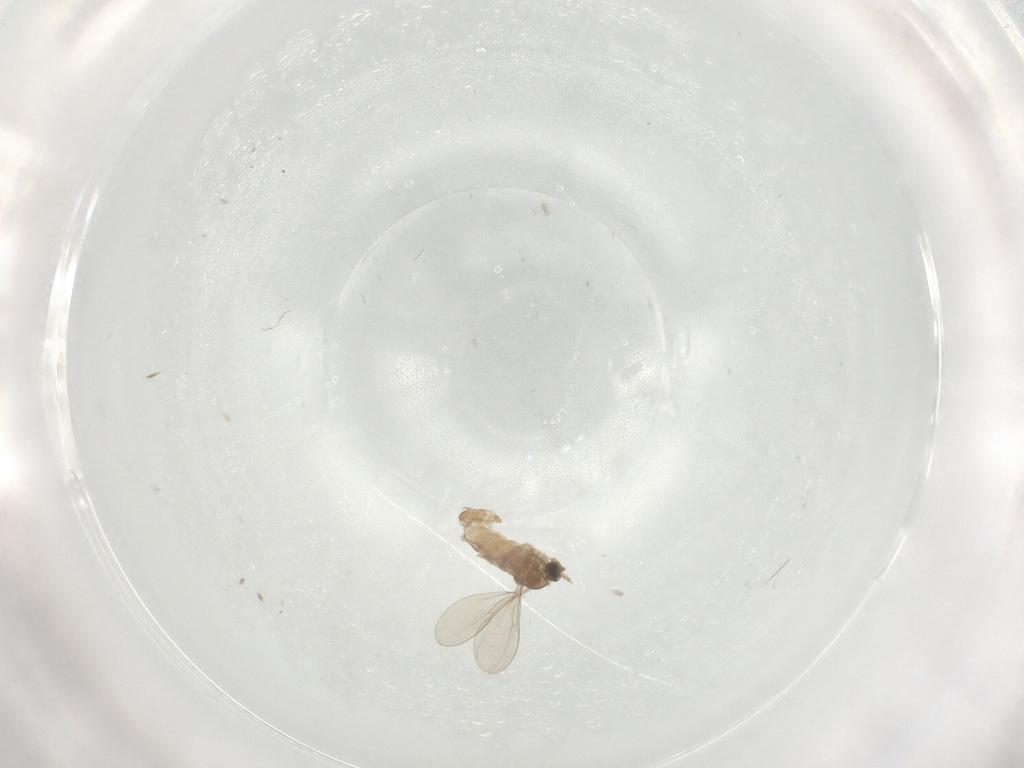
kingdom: Animalia
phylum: Arthropoda
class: Insecta
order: Diptera
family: Cecidomyiidae
